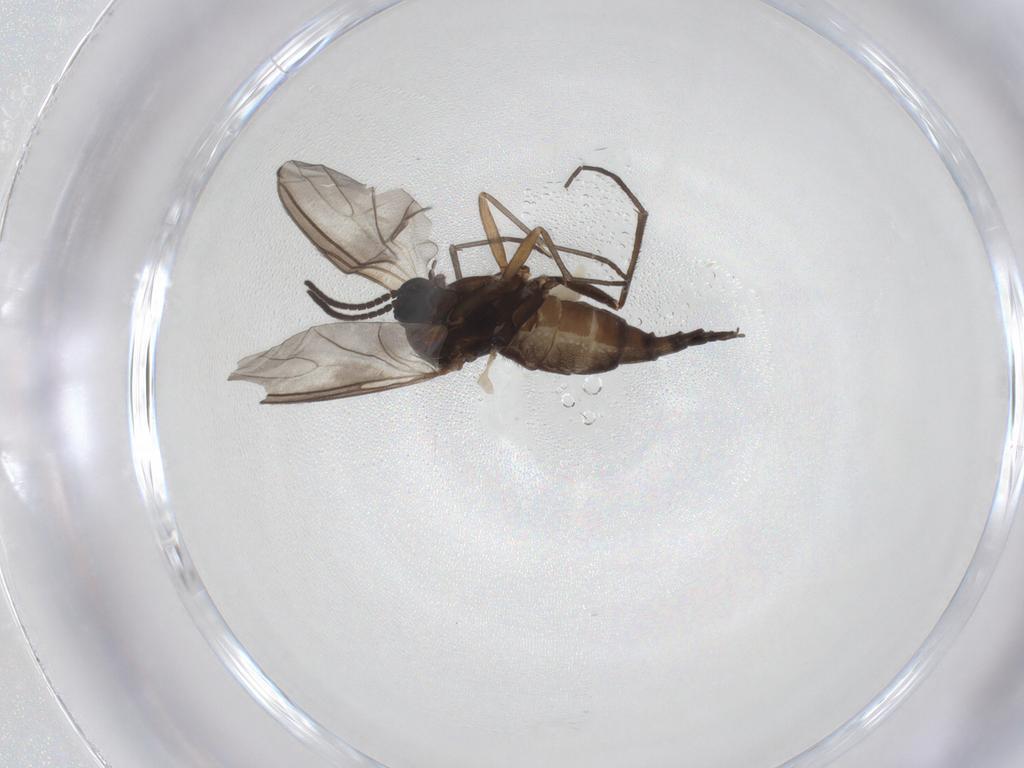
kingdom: Animalia
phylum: Arthropoda
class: Insecta
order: Diptera
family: Sciaridae
